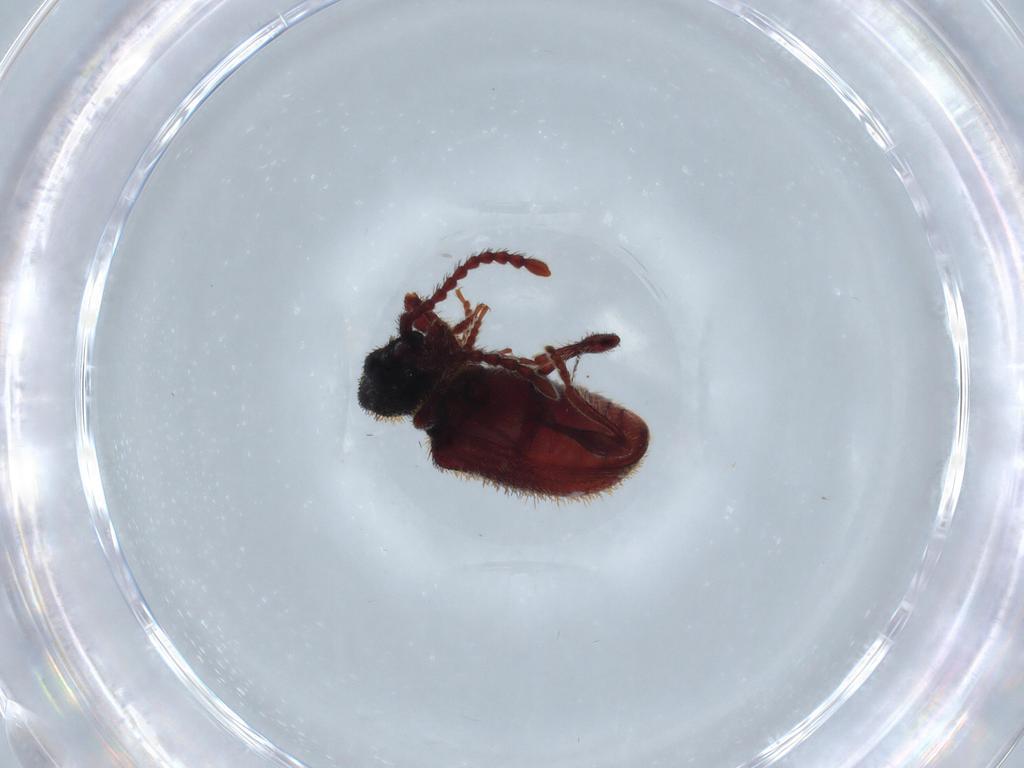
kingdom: Animalia
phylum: Arthropoda
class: Insecta
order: Coleoptera
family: Ptinidae
